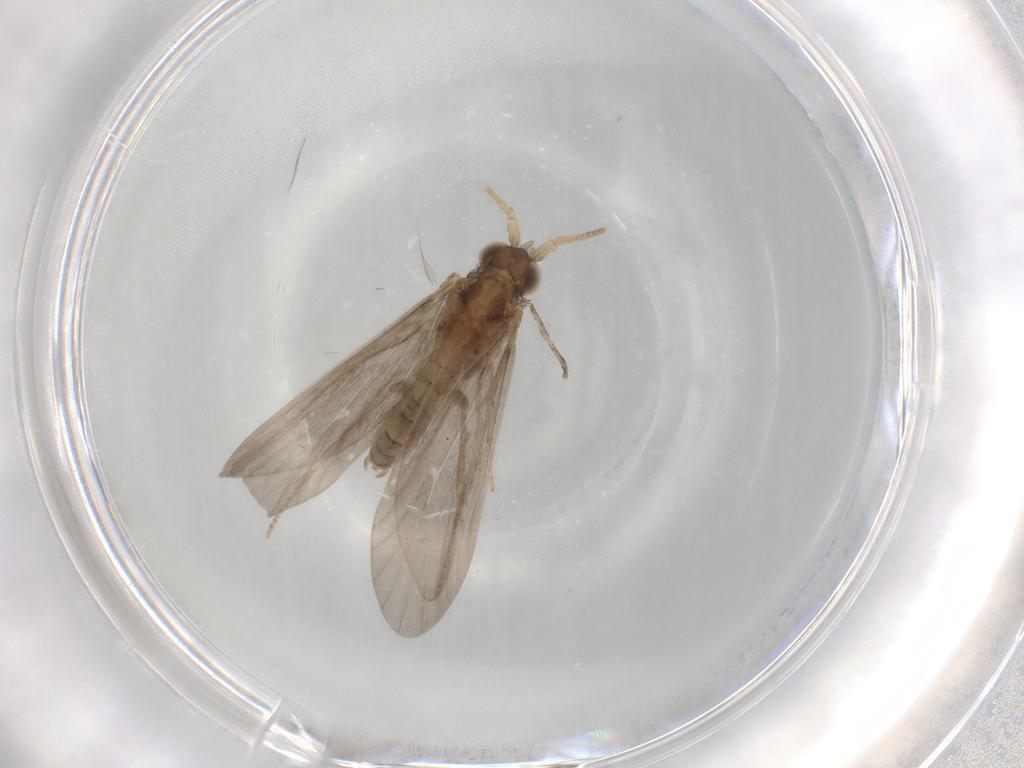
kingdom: Animalia
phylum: Arthropoda
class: Insecta
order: Trichoptera
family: Helicopsychidae
